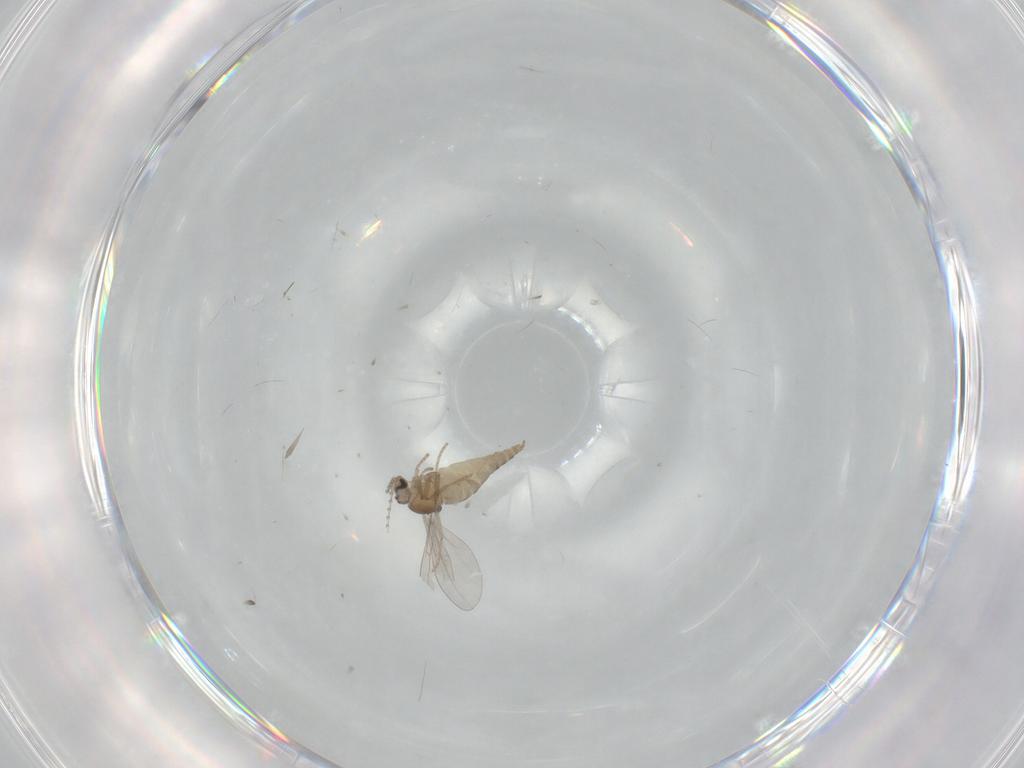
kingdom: Animalia
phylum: Arthropoda
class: Insecta
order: Diptera
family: Cecidomyiidae
